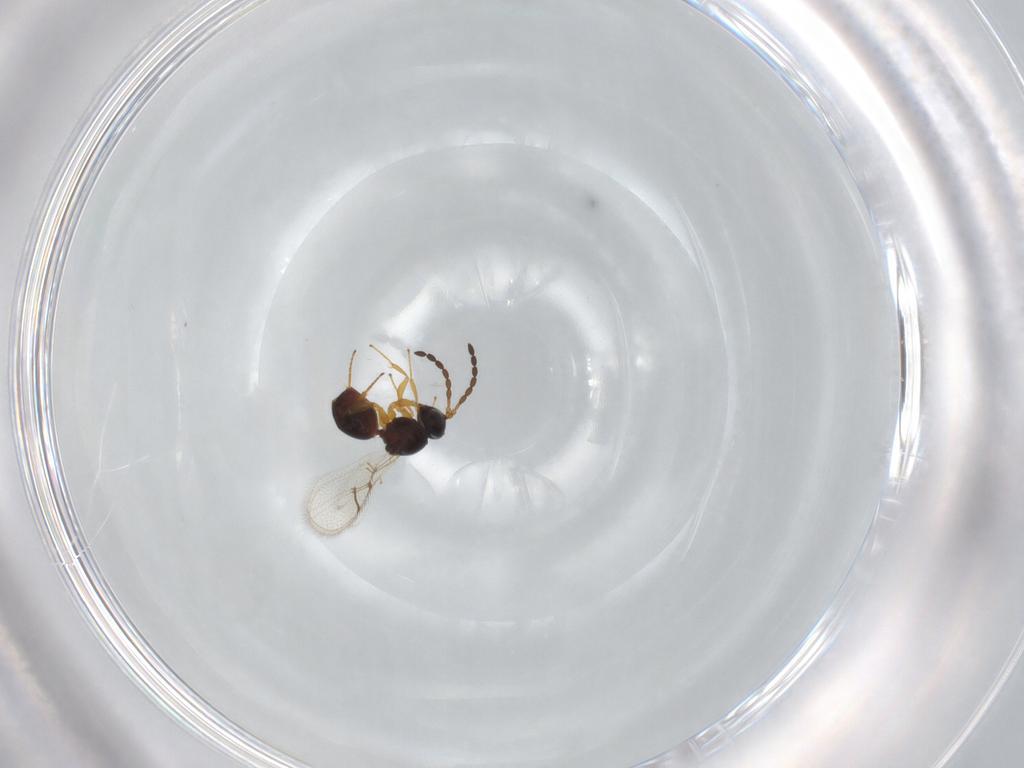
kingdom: Animalia
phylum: Arthropoda
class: Insecta
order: Hymenoptera
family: Figitidae
